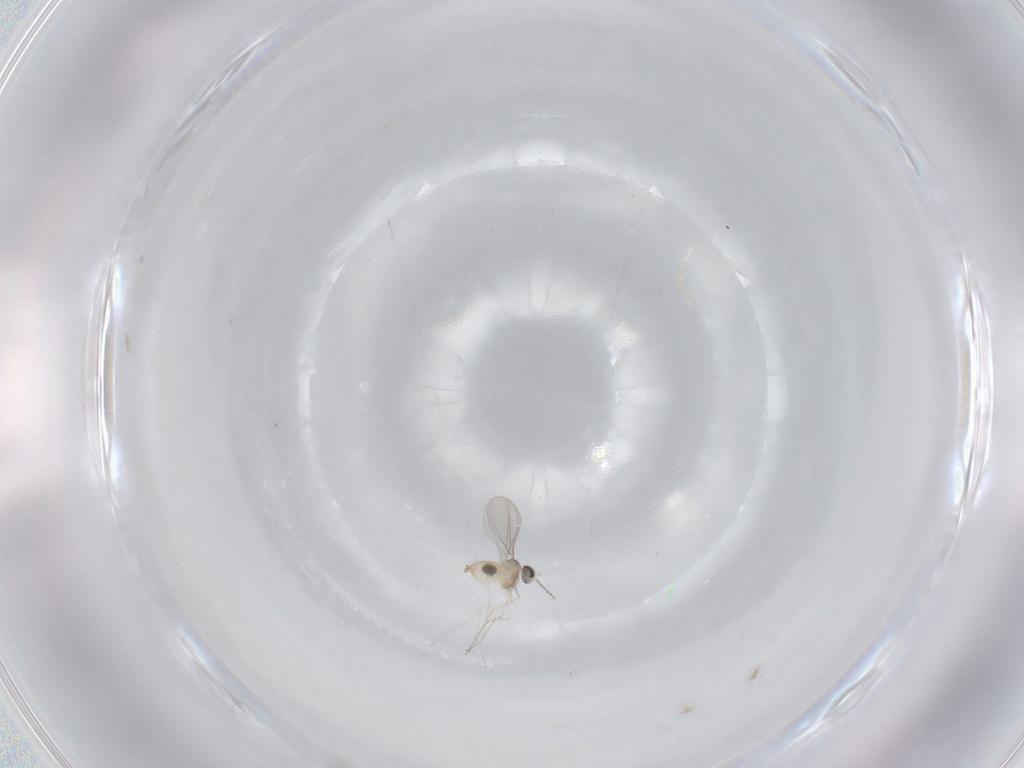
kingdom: Animalia
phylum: Arthropoda
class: Insecta
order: Diptera
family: Cecidomyiidae
